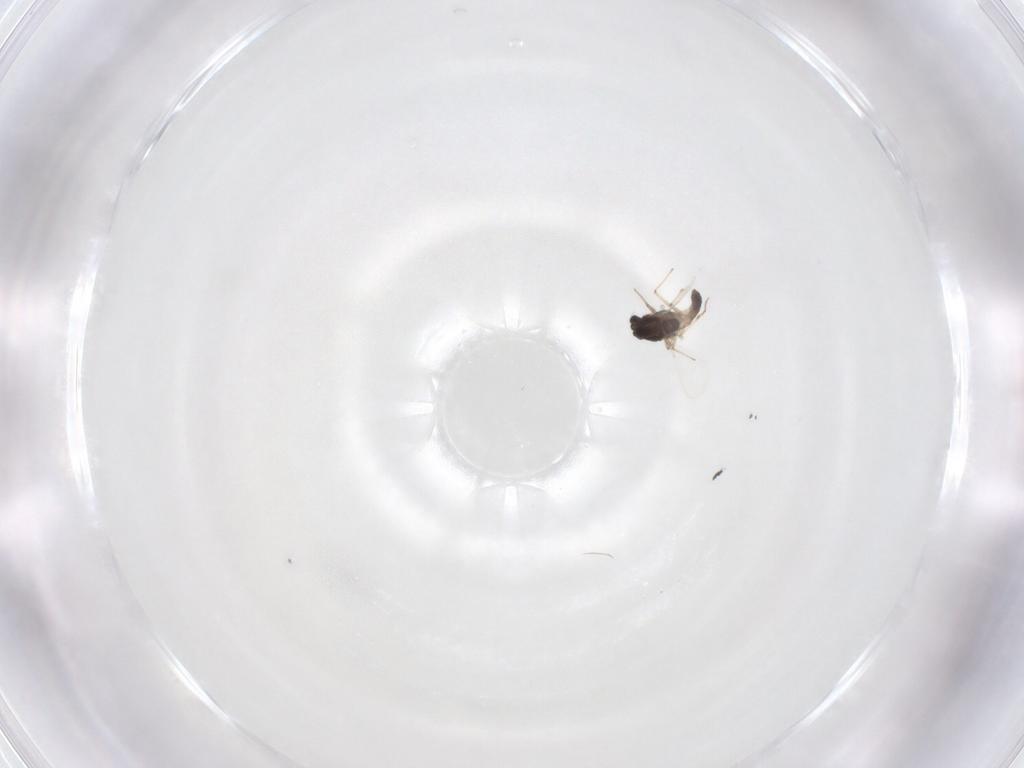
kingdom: Animalia
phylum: Arthropoda
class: Insecta
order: Diptera
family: Chironomidae
